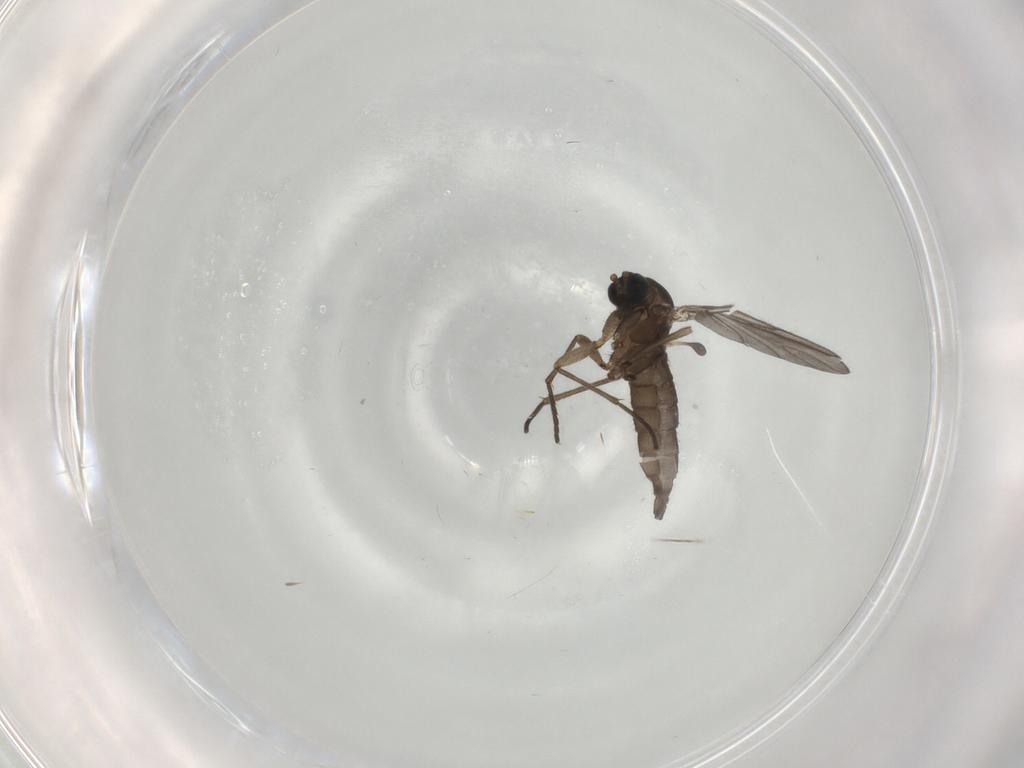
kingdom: Animalia
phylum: Arthropoda
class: Insecta
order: Diptera
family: Sciaridae
